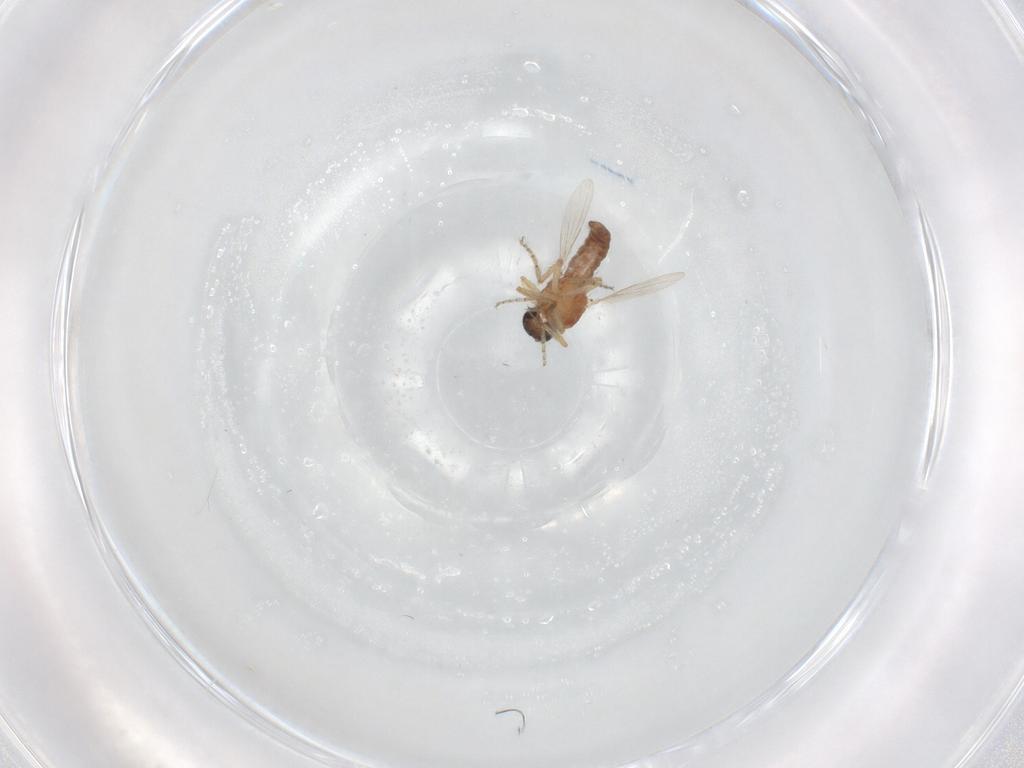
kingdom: Animalia
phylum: Arthropoda
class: Insecta
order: Diptera
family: Ceratopogonidae
